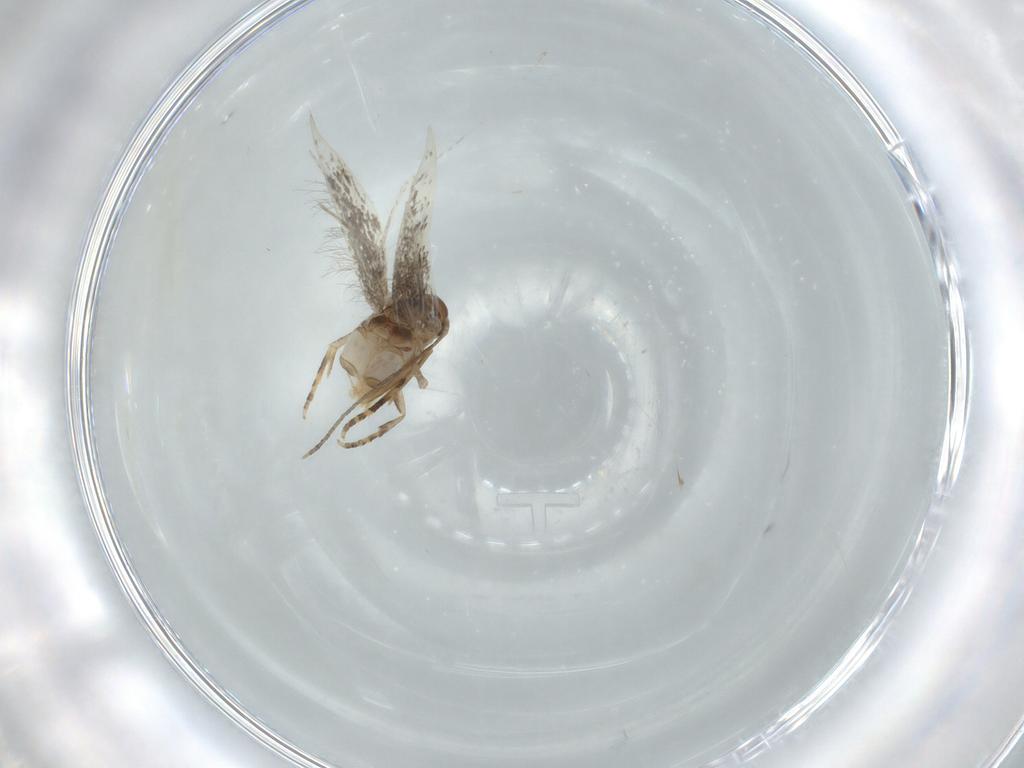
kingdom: Animalia
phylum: Arthropoda
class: Insecta
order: Lepidoptera
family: Elachistidae
